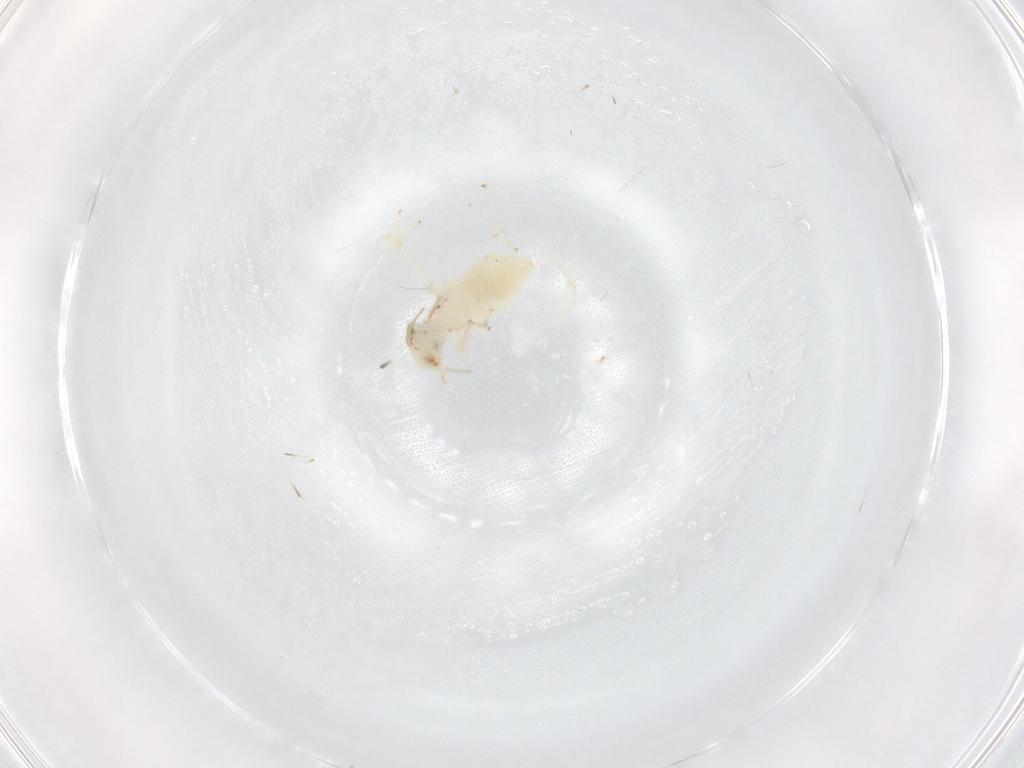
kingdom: Animalia
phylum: Arthropoda
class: Insecta
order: Psocodea
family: Lepidopsocidae
